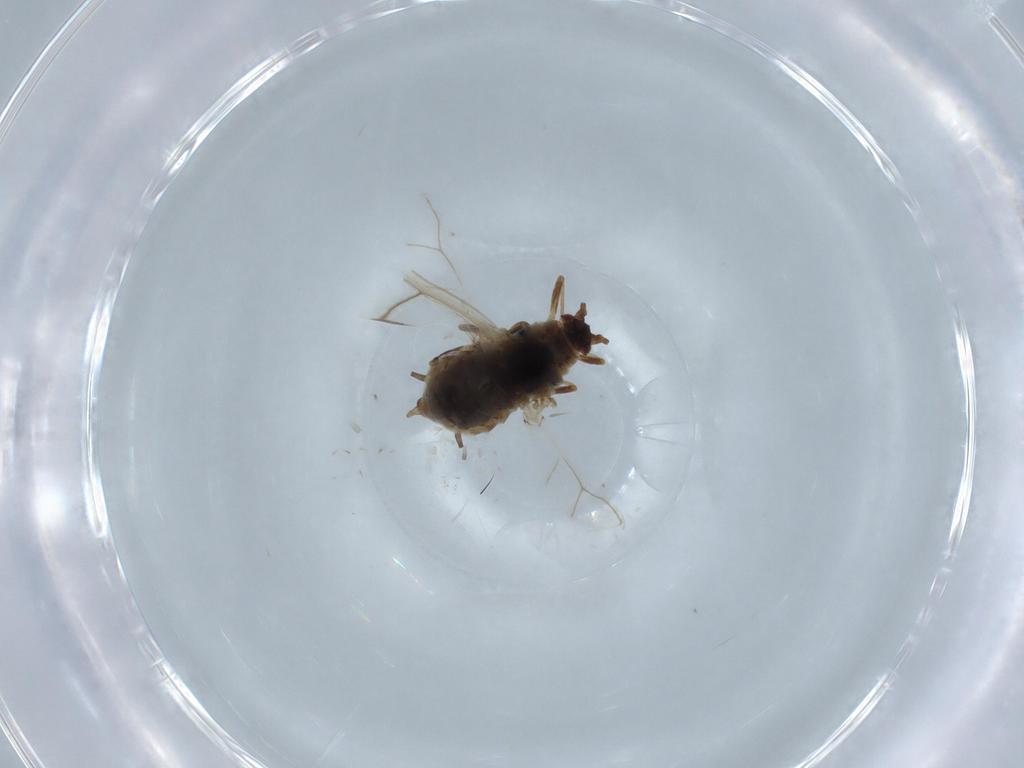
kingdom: Animalia
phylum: Arthropoda
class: Insecta
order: Hemiptera
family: Aphididae
